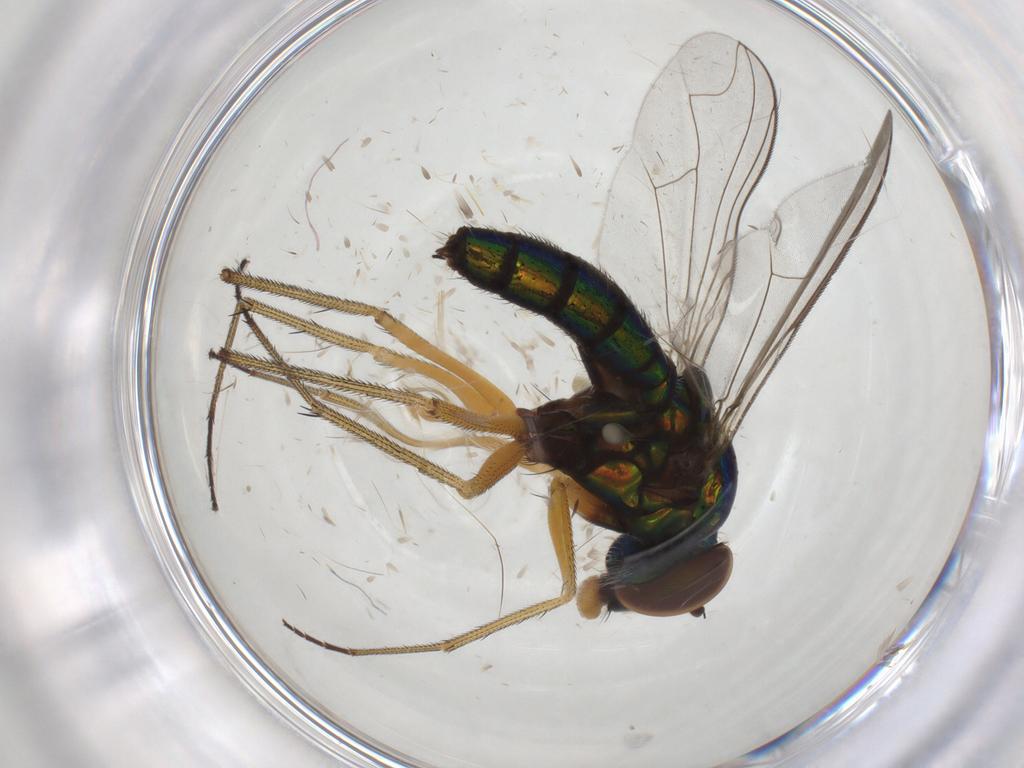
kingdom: Animalia
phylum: Arthropoda
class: Insecta
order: Diptera
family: Dolichopodidae
